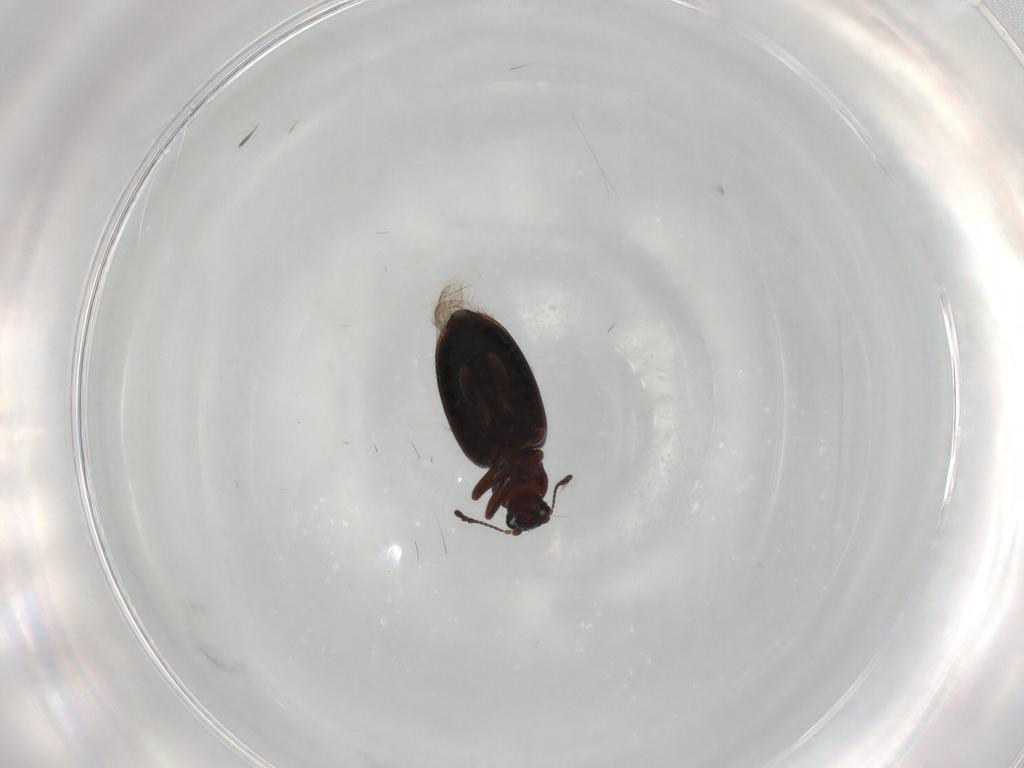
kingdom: Animalia
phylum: Arthropoda
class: Insecta
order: Coleoptera
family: Latridiidae
